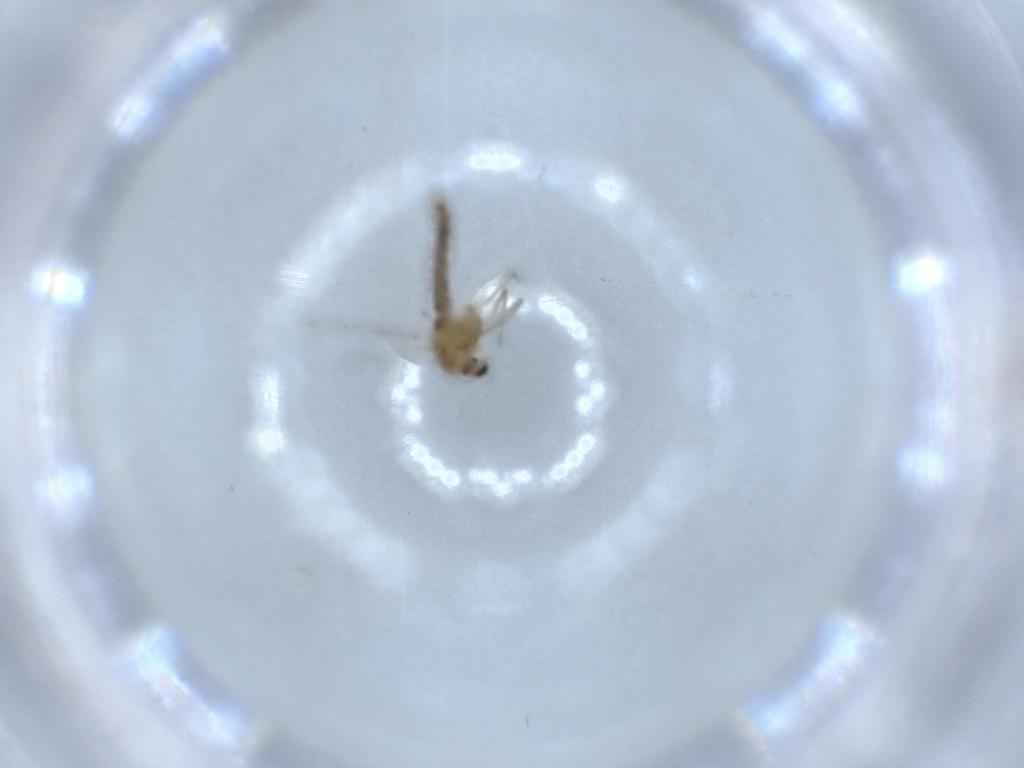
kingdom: Animalia
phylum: Arthropoda
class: Insecta
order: Diptera
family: Chironomidae
